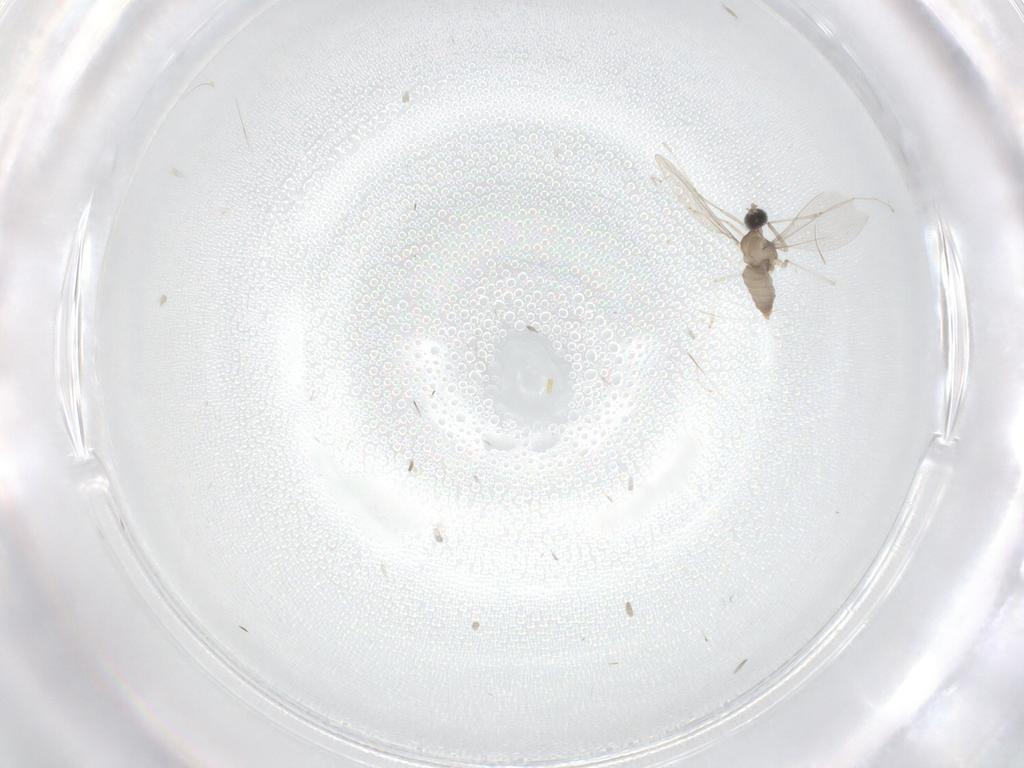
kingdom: Animalia
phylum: Arthropoda
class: Insecta
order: Diptera
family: Cecidomyiidae
